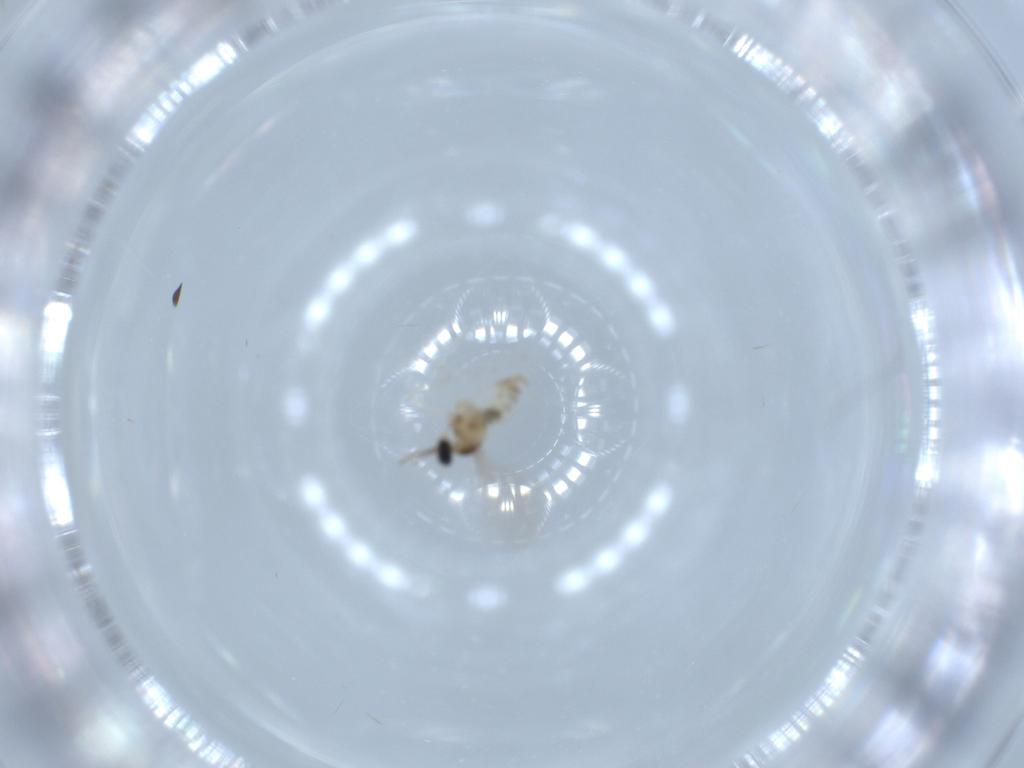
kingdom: Animalia
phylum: Arthropoda
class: Insecta
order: Diptera
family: Cecidomyiidae
